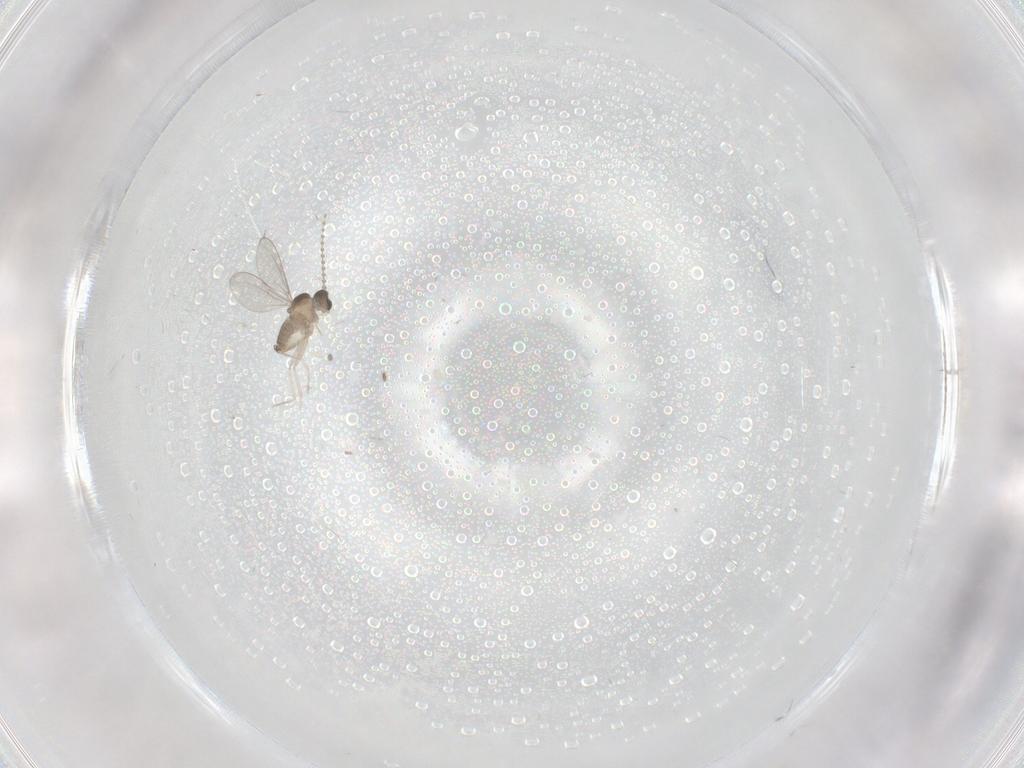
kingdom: Animalia
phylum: Arthropoda
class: Insecta
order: Diptera
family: Cecidomyiidae
